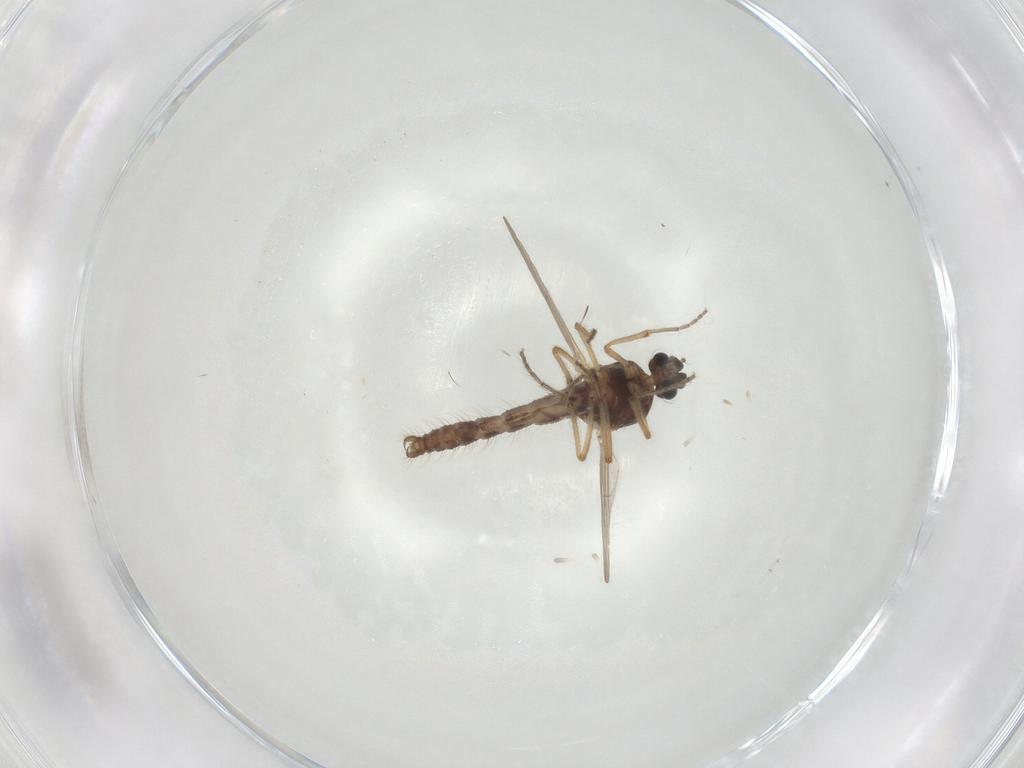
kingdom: Animalia
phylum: Arthropoda
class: Insecta
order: Diptera
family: Ceratopogonidae
